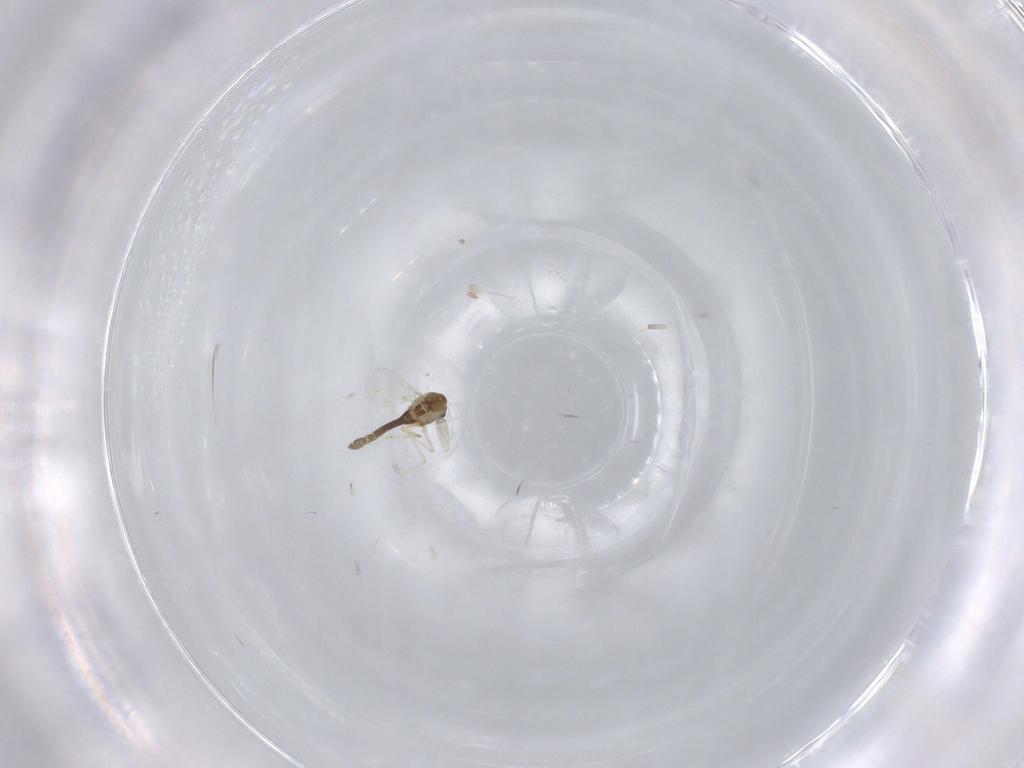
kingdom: Animalia
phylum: Arthropoda
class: Insecta
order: Diptera
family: Chironomidae
